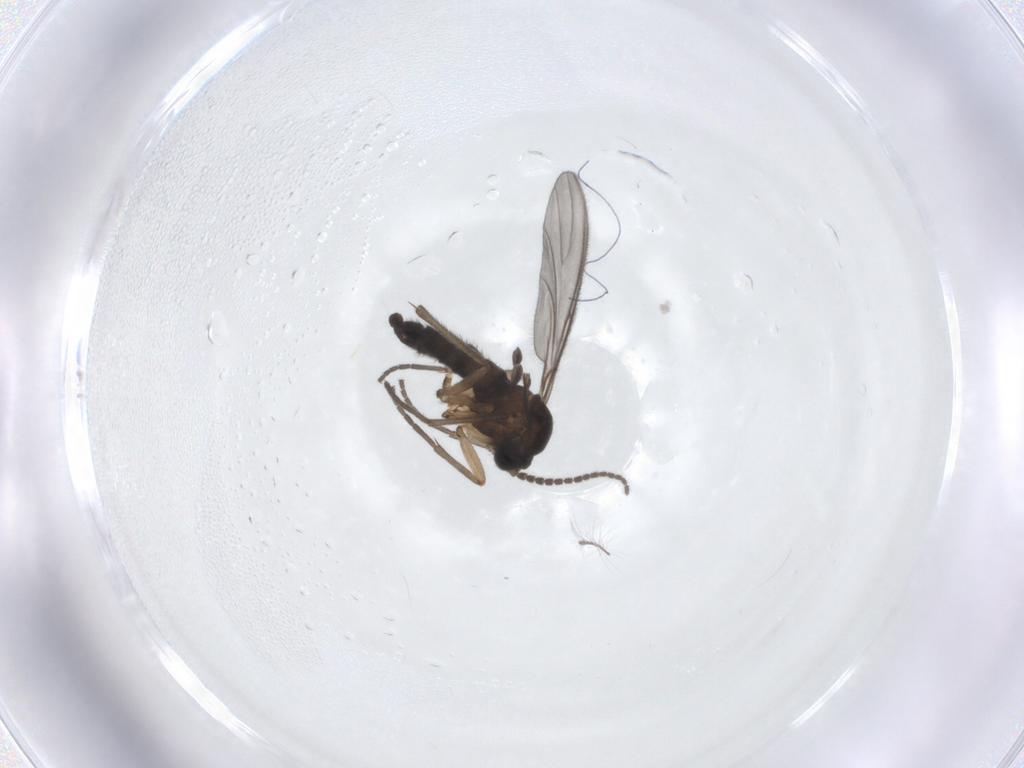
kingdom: Animalia
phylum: Arthropoda
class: Insecta
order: Diptera
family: Sciaridae
